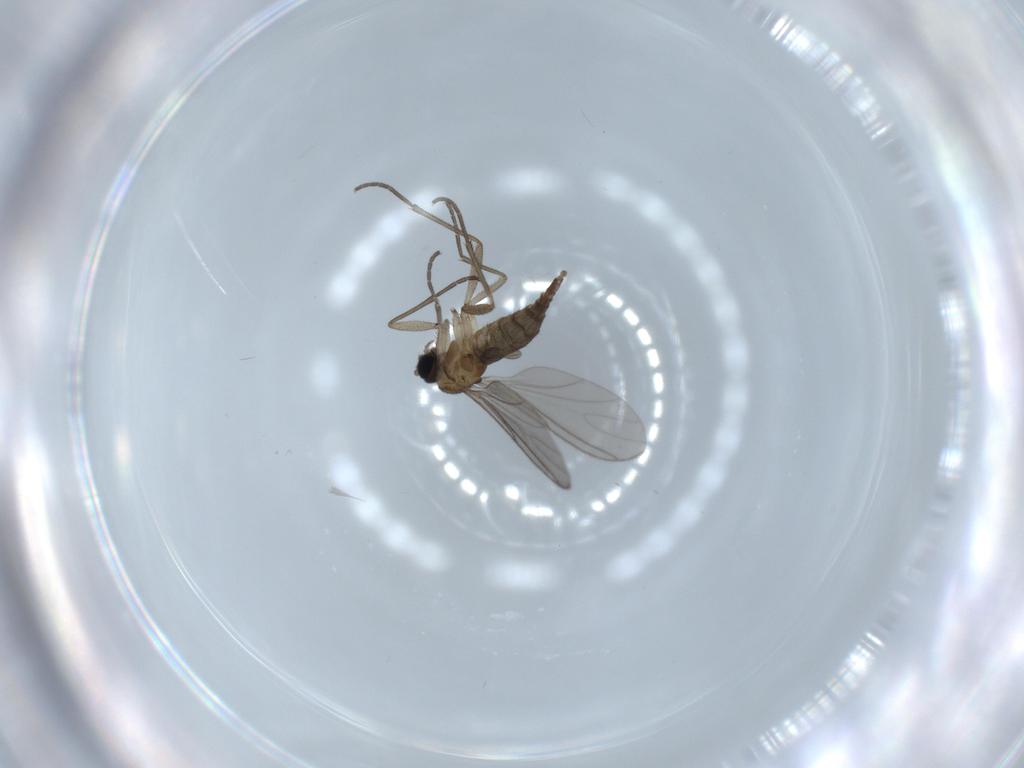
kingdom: Animalia
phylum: Arthropoda
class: Insecta
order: Diptera
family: Sciaridae
